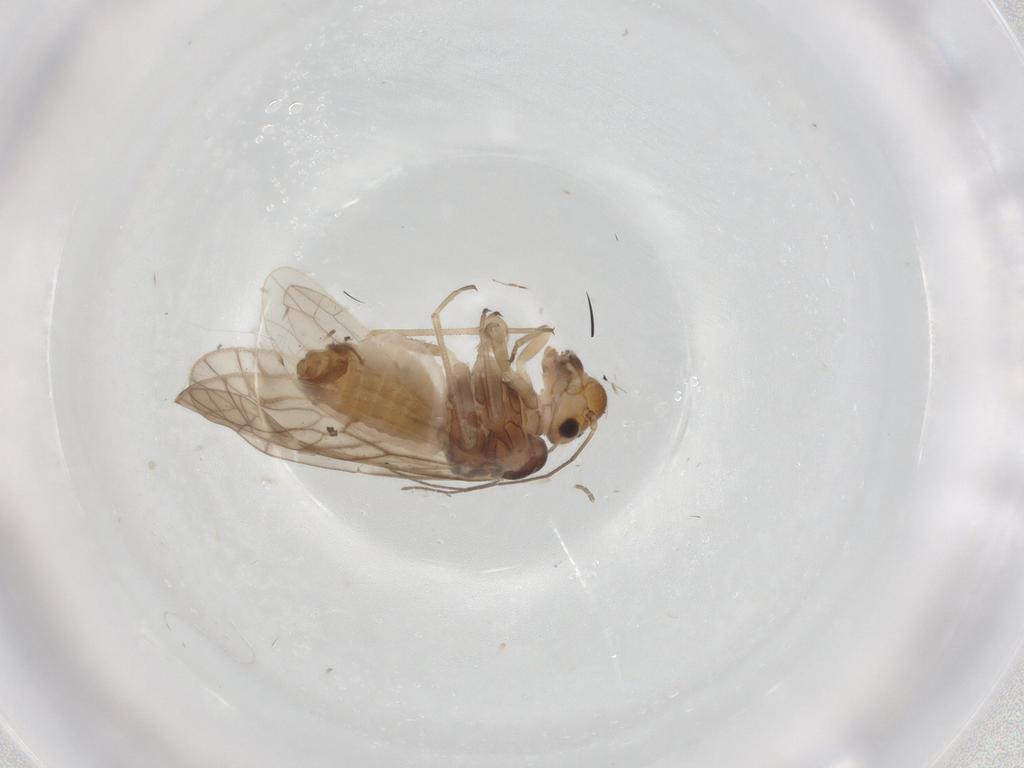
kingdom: Animalia
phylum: Arthropoda
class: Insecta
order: Psocodea
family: Philotarsidae
